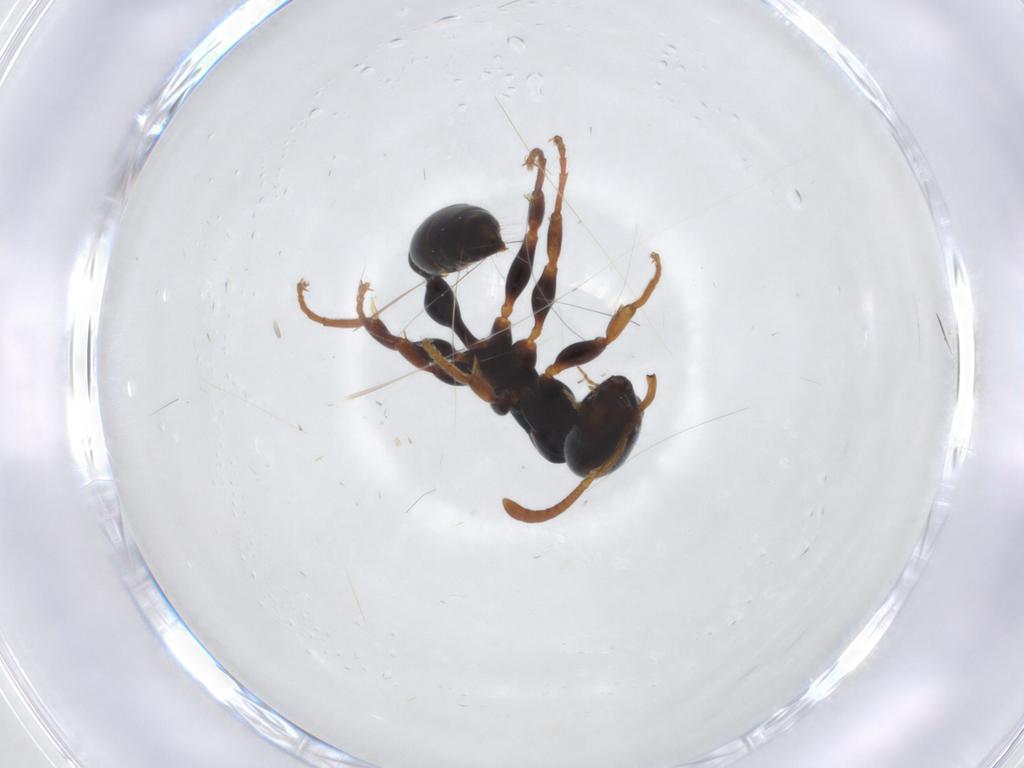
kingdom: Animalia
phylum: Arthropoda
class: Insecta
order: Hymenoptera
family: Formicidae
